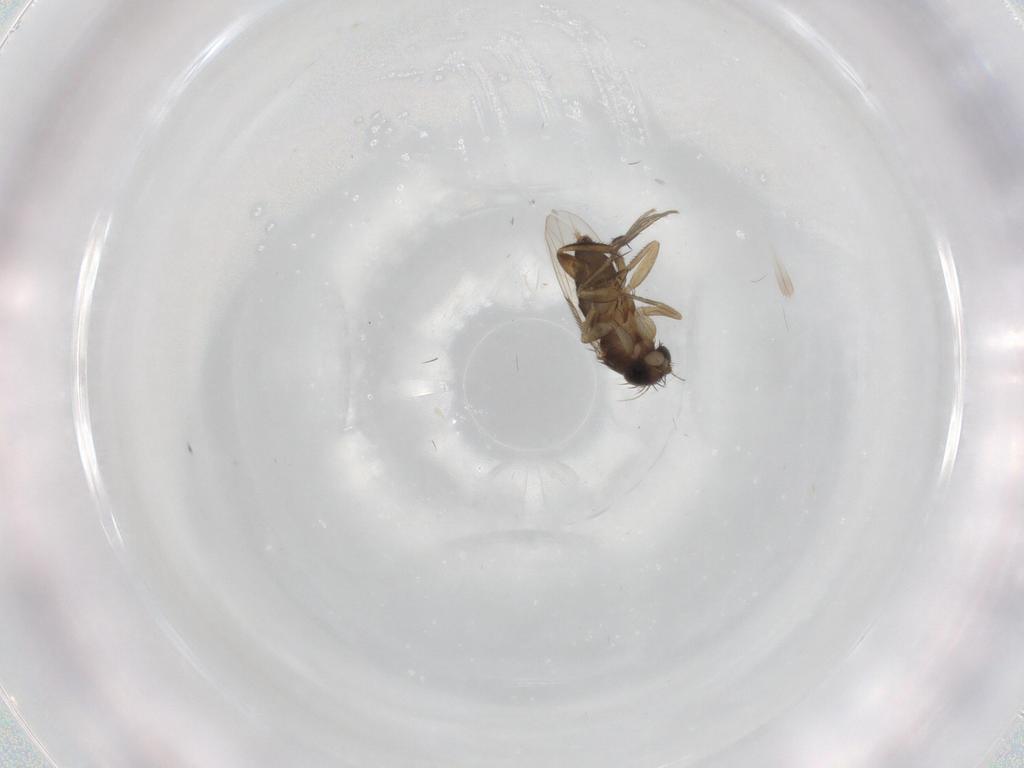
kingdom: Animalia
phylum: Arthropoda
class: Insecta
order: Diptera
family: Phoridae
